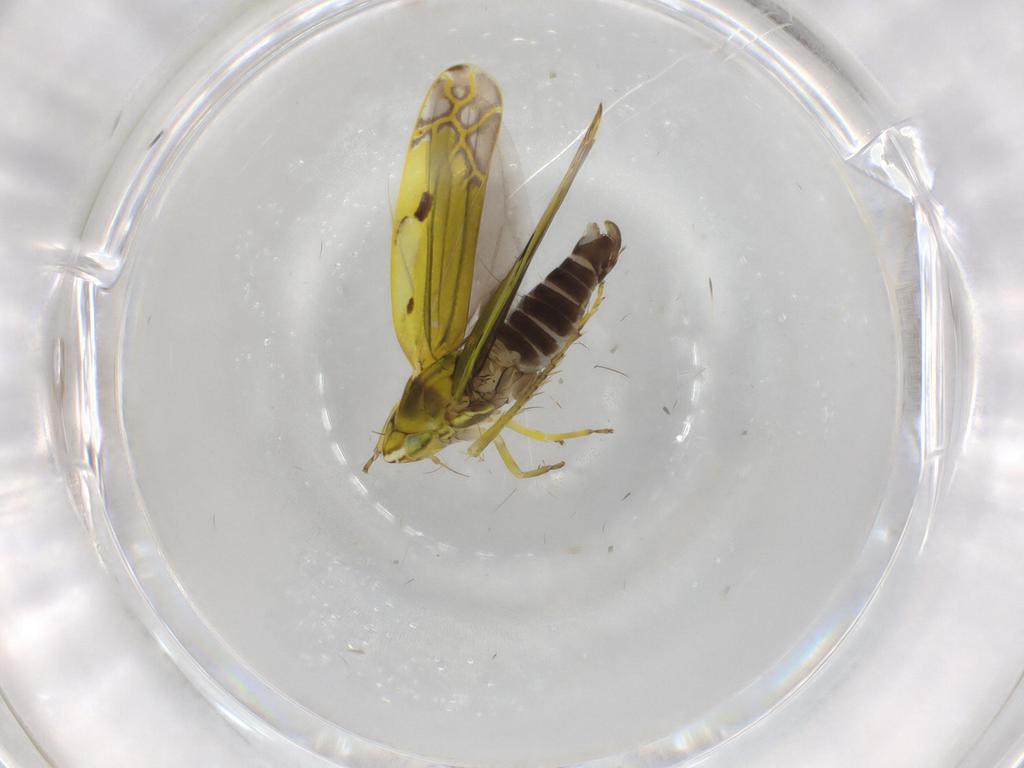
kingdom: Animalia
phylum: Arthropoda
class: Insecta
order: Hemiptera
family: Cicadellidae
